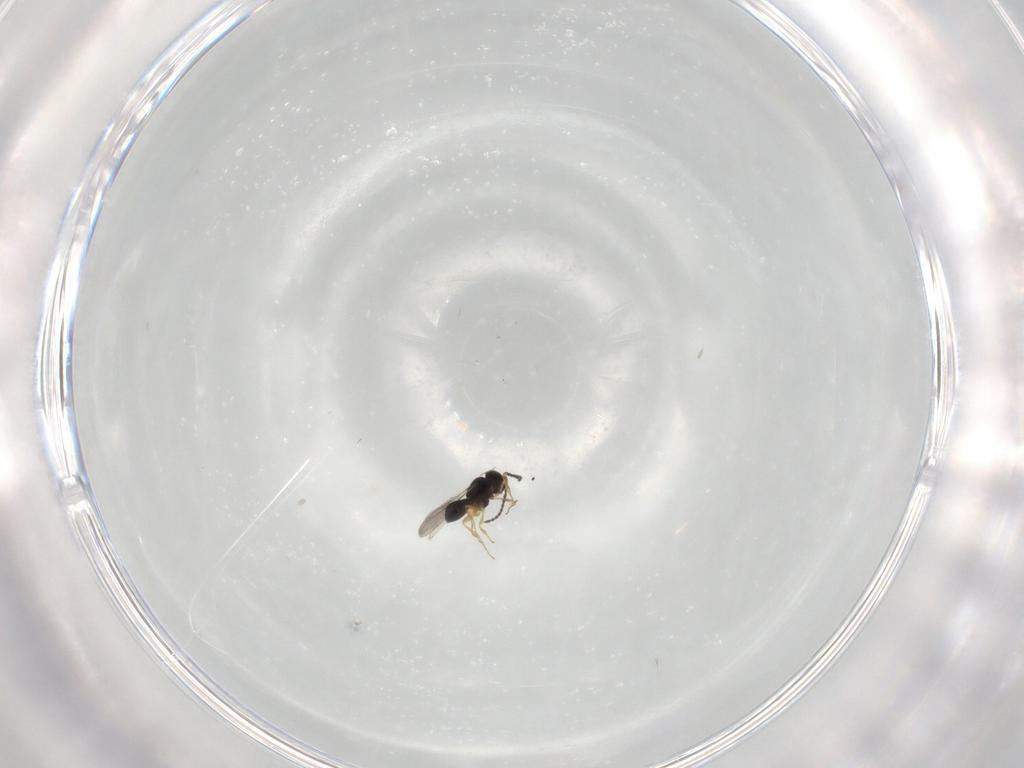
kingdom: Animalia
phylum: Arthropoda
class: Insecta
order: Hymenoptera
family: Scelionidae
